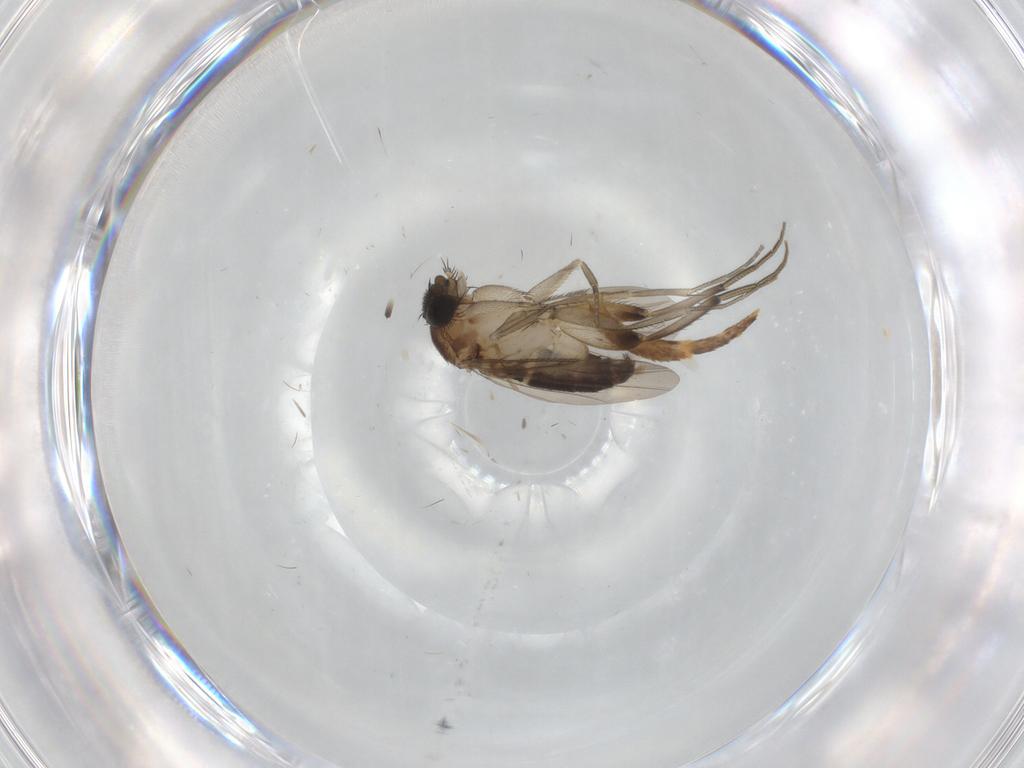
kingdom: Animalia
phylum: Arthropoda
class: Insecta
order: Diptera
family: Phoridae
